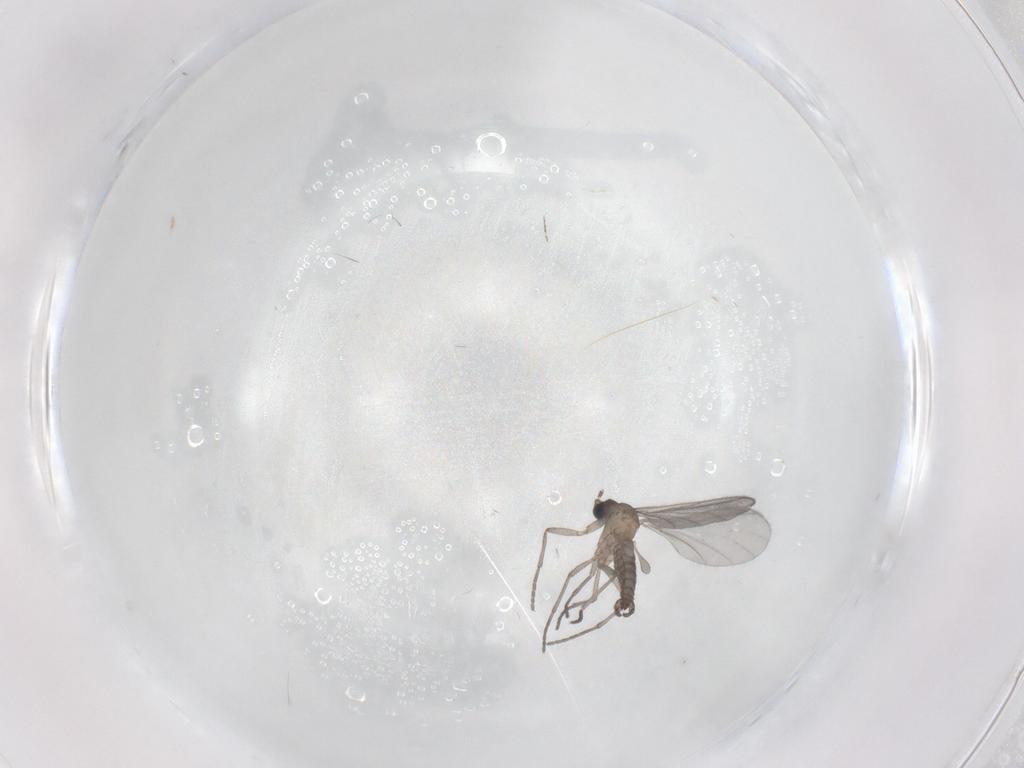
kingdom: Animalia
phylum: Arthropoda
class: Insecta
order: Diptera
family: Sciaridae
